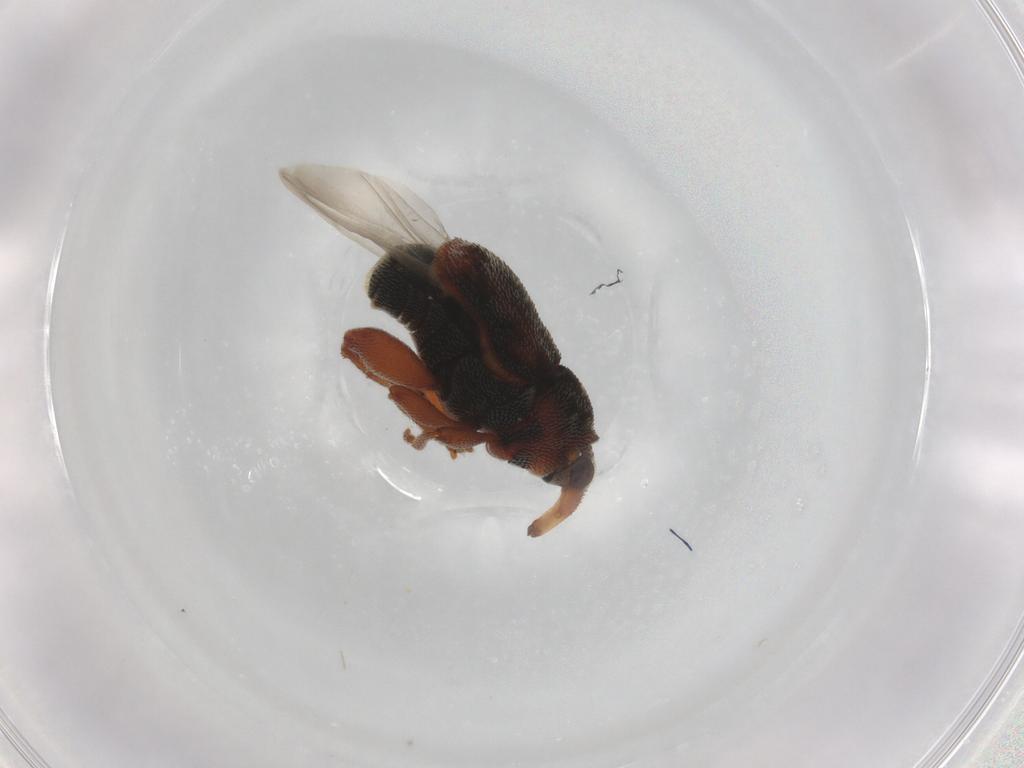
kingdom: Animalia
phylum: Arthropoda
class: Insecta
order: Coleoptera
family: Curculionidae
